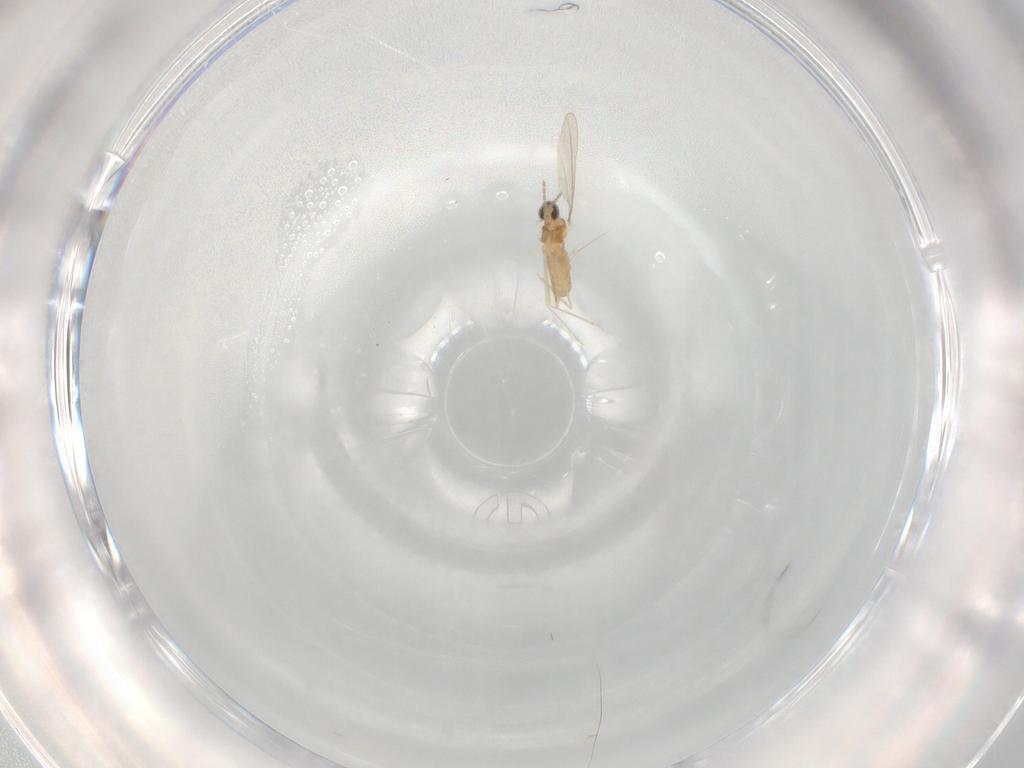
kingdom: Animalia
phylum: Arthropoda
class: Insecta
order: Diptera
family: Cecidomyiidae
